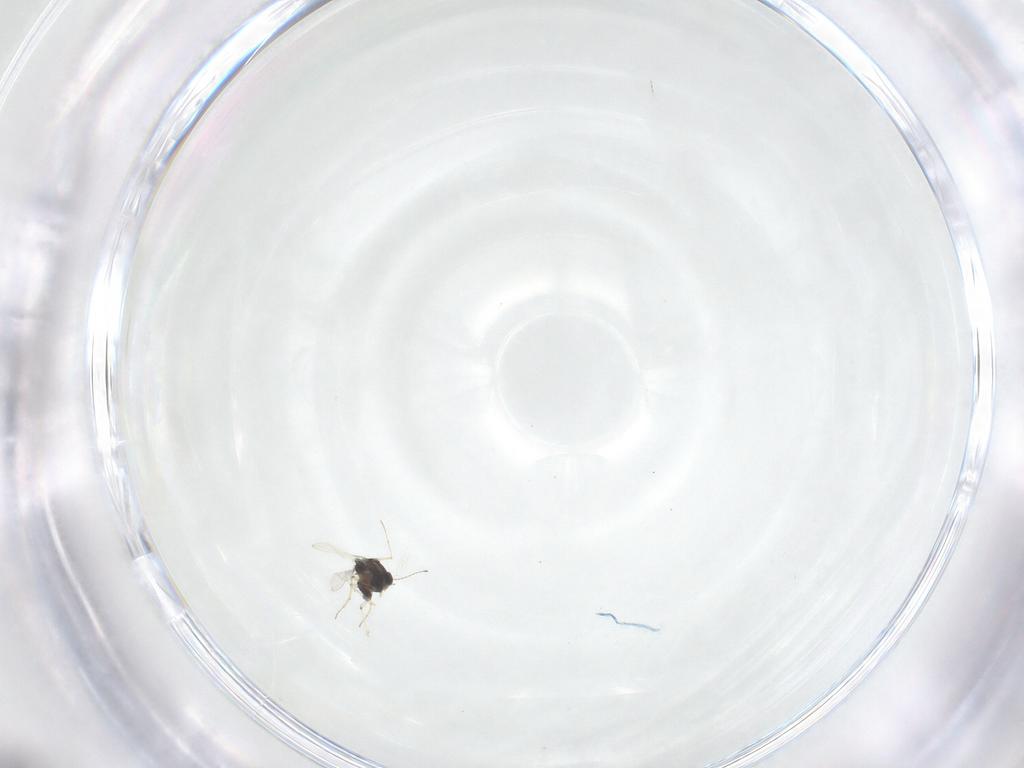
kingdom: Animalia
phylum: Arthropoda
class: Insecta
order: Diptera
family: Chironomidae
